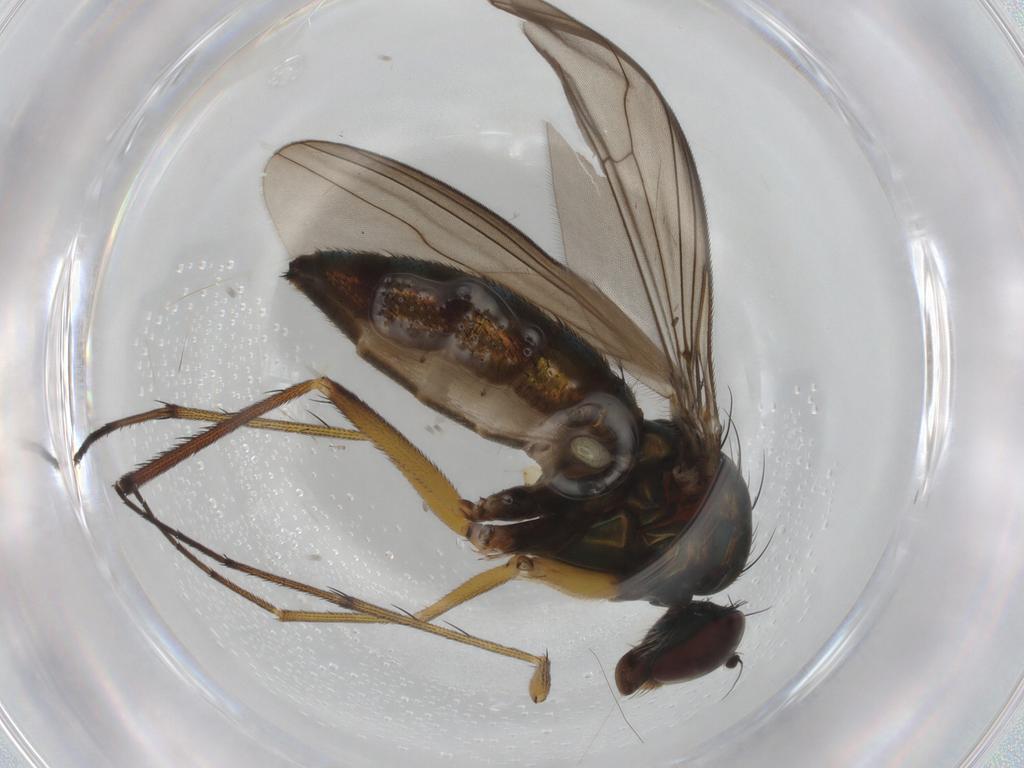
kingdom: Animalia
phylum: Arthropoda
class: Insecta
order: Diptera
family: Dolichopodidae
